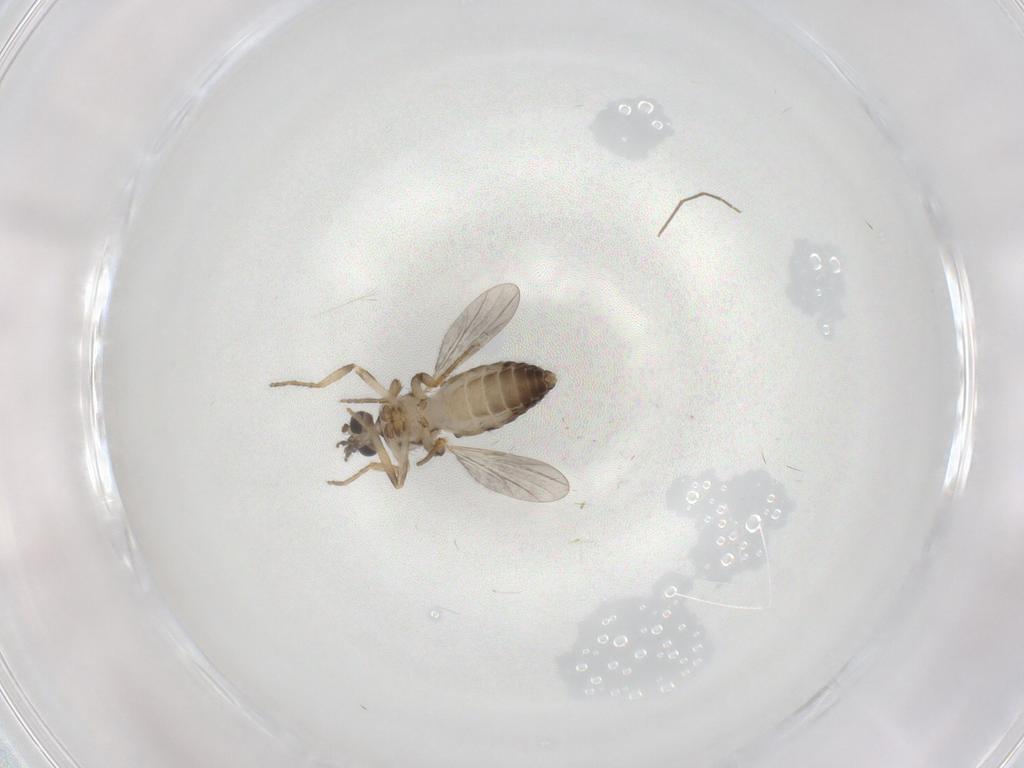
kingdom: Animalia
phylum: Arthropoda
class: Insecta
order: Diptera
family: Ceratopogonidae
